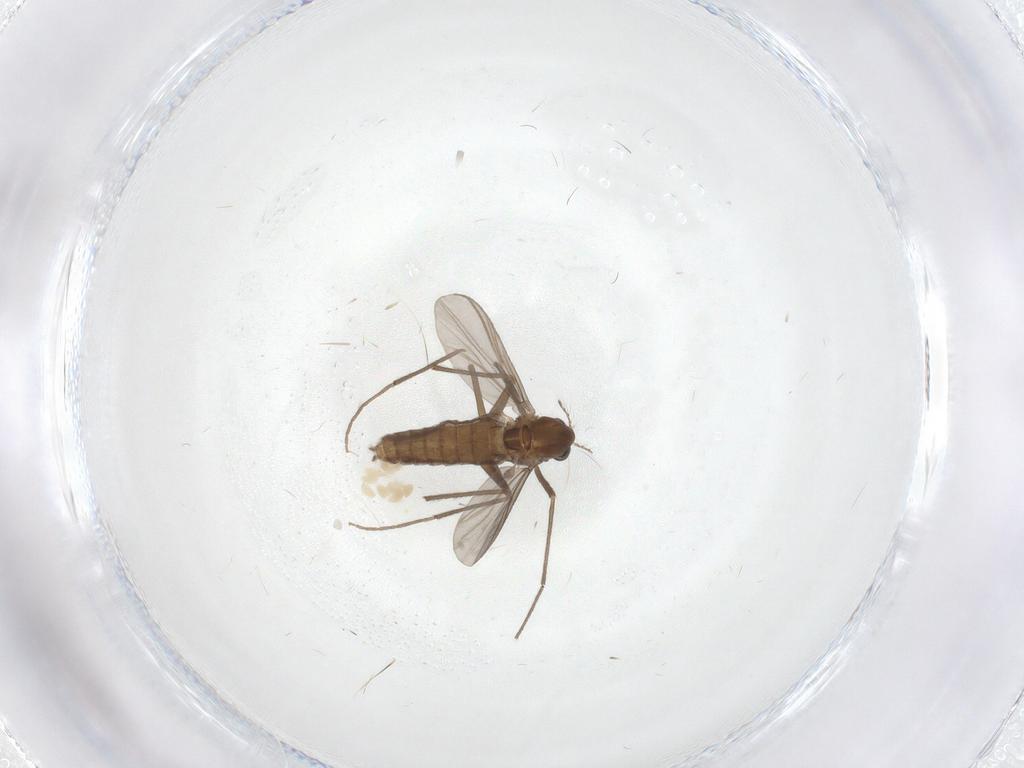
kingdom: Animalia
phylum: Arthropoda
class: Insecta
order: Diptera
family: Chironomidae
